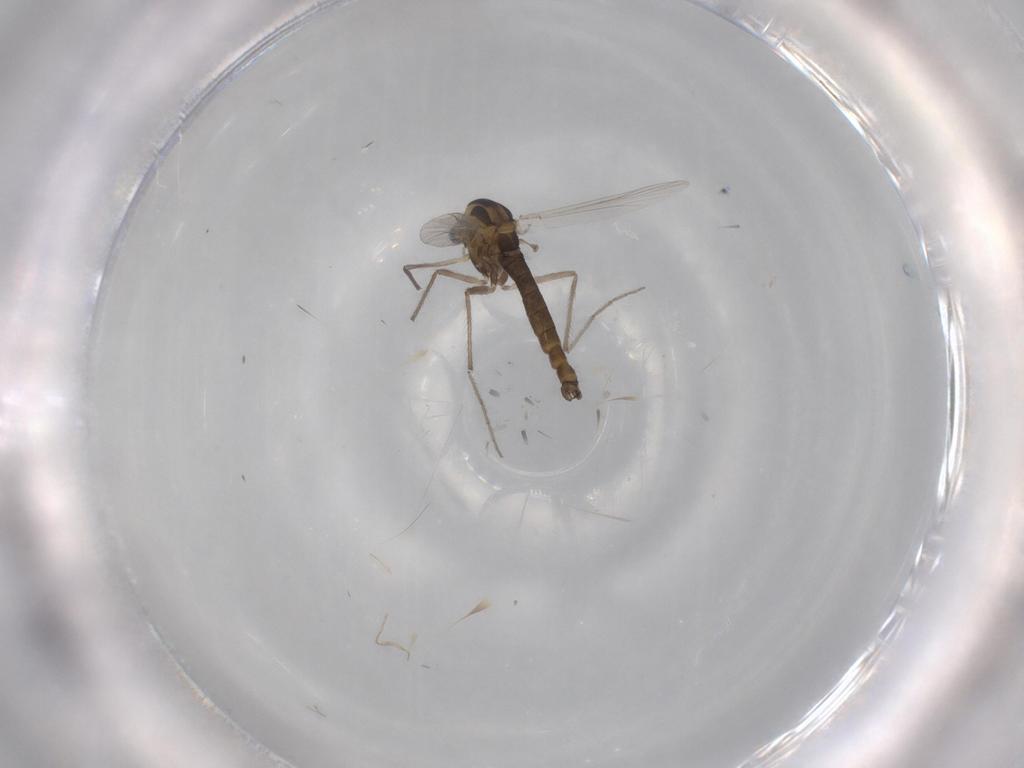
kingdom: Animalia
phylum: Arthropoda
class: Insecta
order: Diptera
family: Chironomidae
